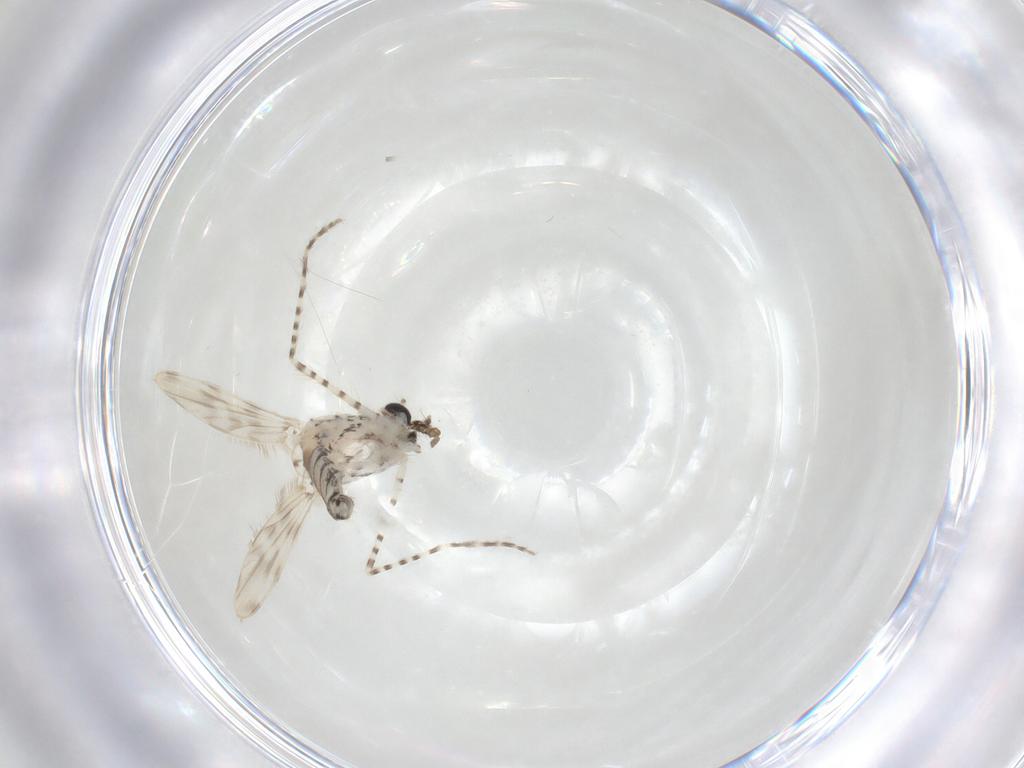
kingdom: Animalia
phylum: Arthropoda
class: Insecta
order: Diptera
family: Chaoboridae
